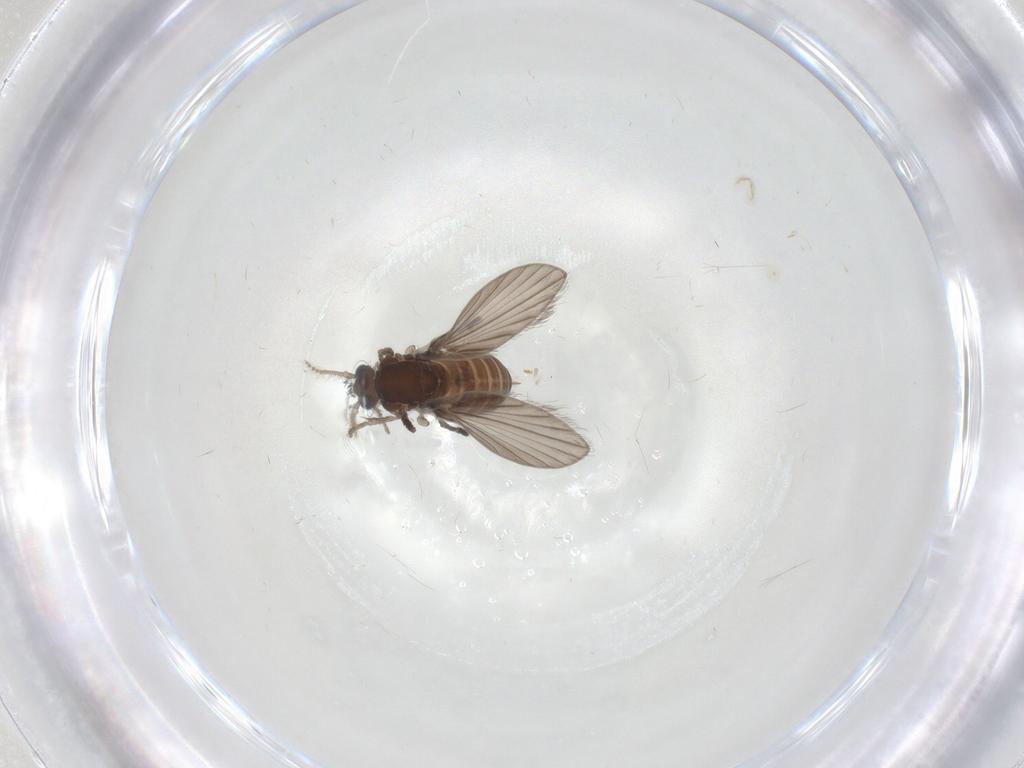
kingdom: Animalia
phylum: Arthropoda
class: Insecta
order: Diptera
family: Psychodidae
